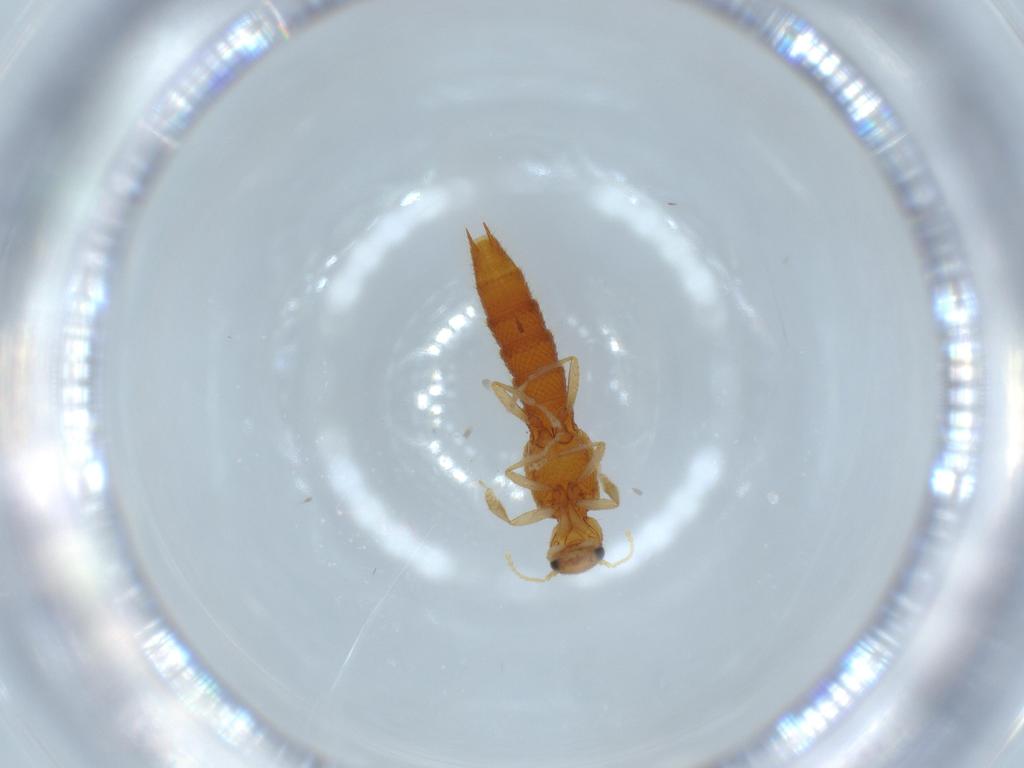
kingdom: Animalia
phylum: Arthropoda
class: Insecta
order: Coleoptera
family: Staphylinidae
